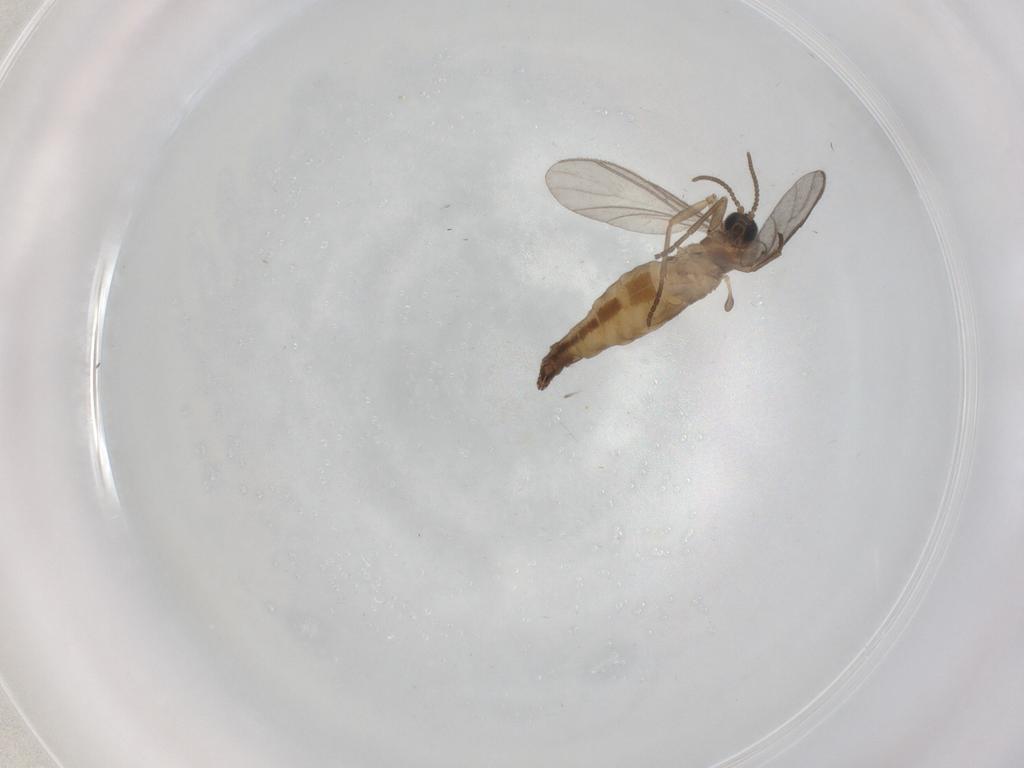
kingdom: Animalia
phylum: Arthropoda
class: Insecta
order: Diptera
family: Sciaridae
